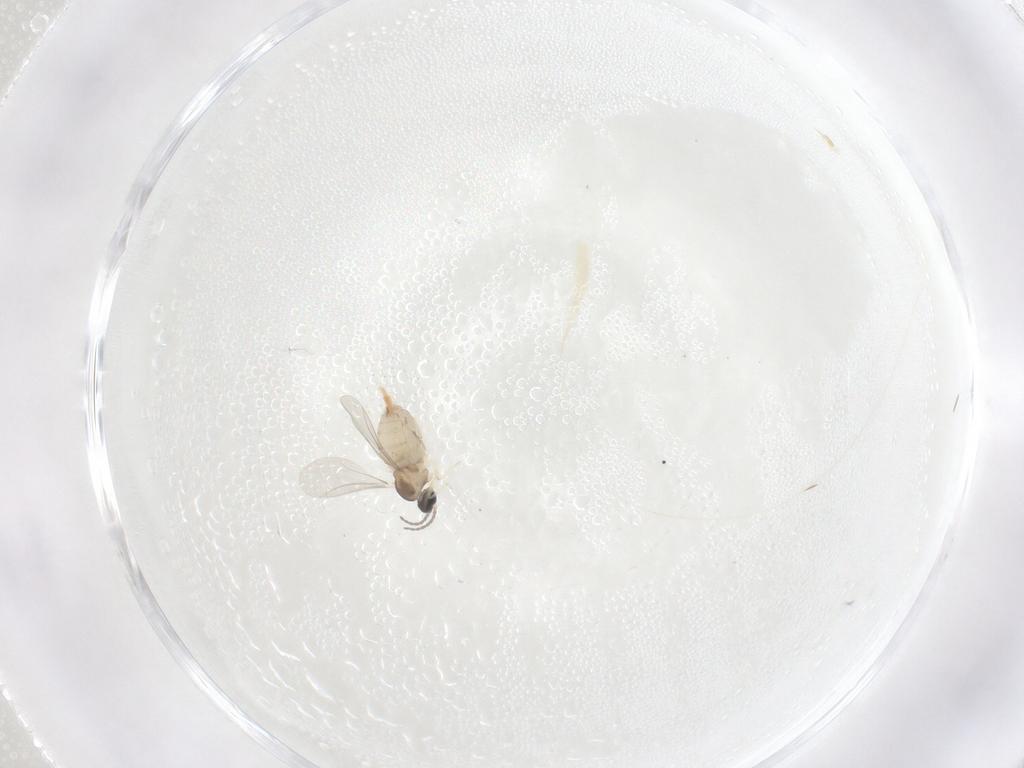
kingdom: Animalia
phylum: Arthropoda
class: Insecta
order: Diptera
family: Cecidomyiidae
